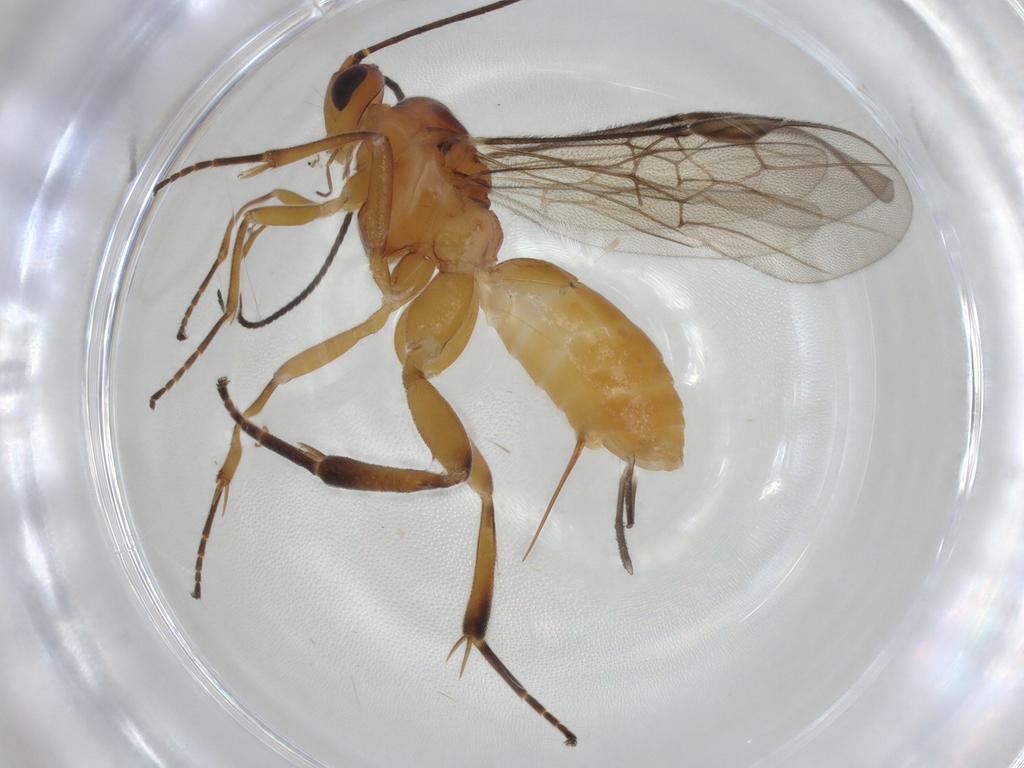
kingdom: Animalia
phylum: Arthropoda
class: Insecta
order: Hymenoptera
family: Braconidae
